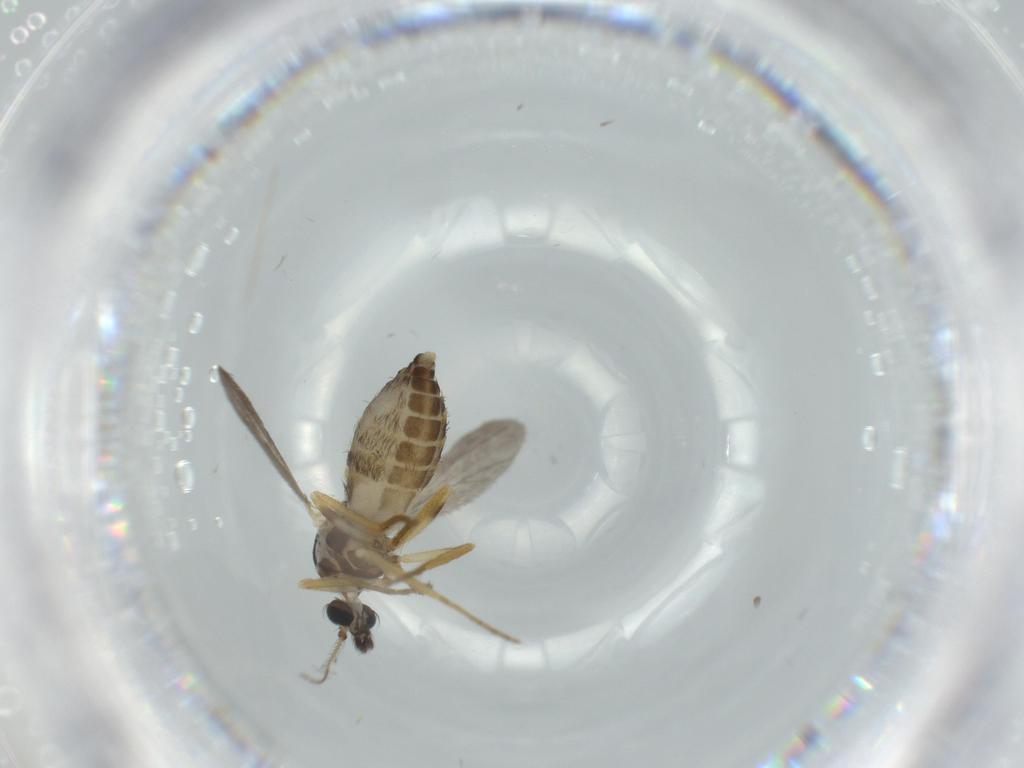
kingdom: Animalia
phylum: Arthropoda
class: Insecta
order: Diptera
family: Ceratopogonidae
